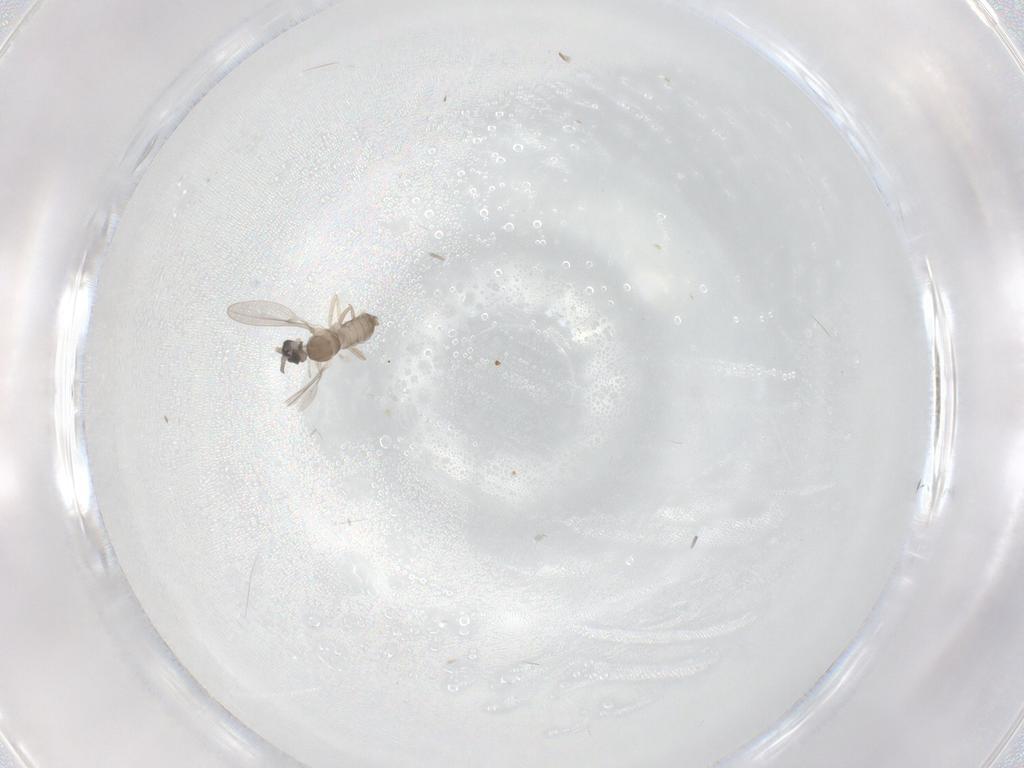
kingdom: Animalia
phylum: Arthropoda
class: Insecta
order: Diptera
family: Cecidomyiidae
